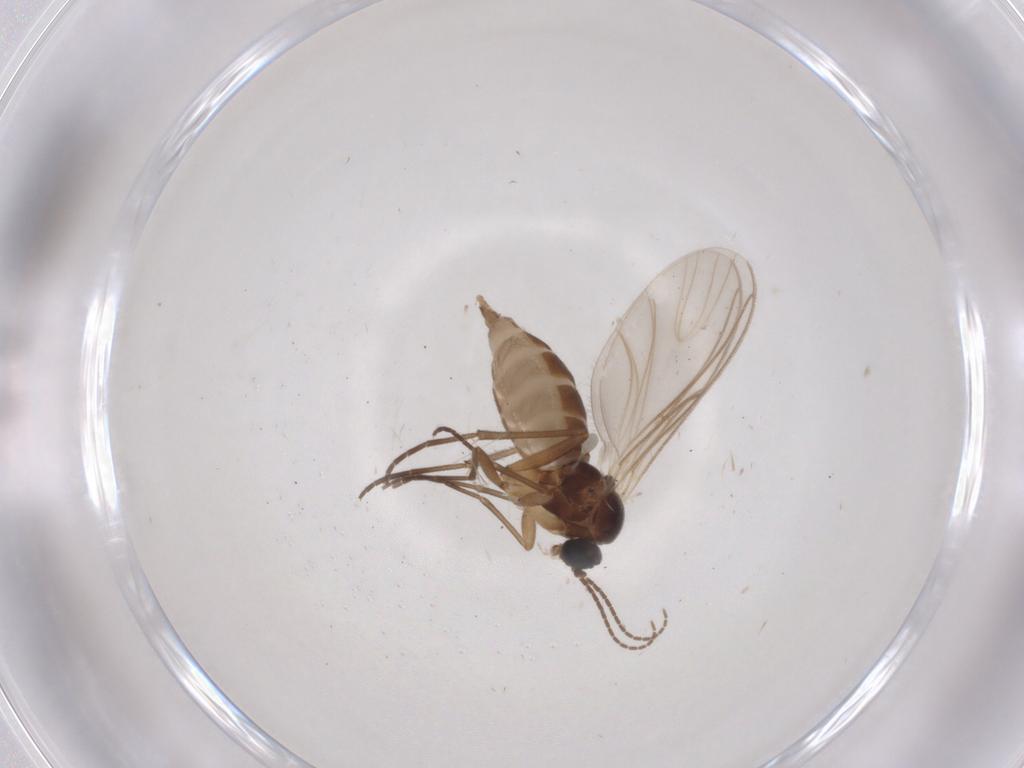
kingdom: Animalia
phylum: Arthropoda
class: Insecta
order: Diptera
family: Sciaridae
